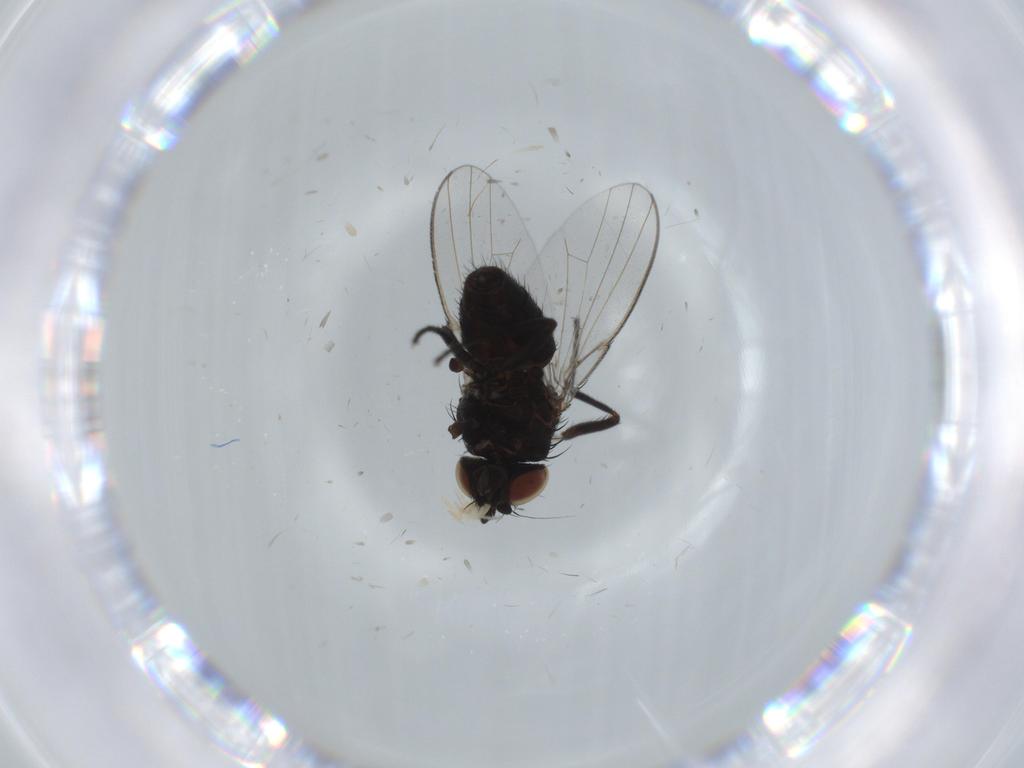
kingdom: Animalia
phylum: Arthropoda
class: Insecta
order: Diptera
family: Milichiidae
